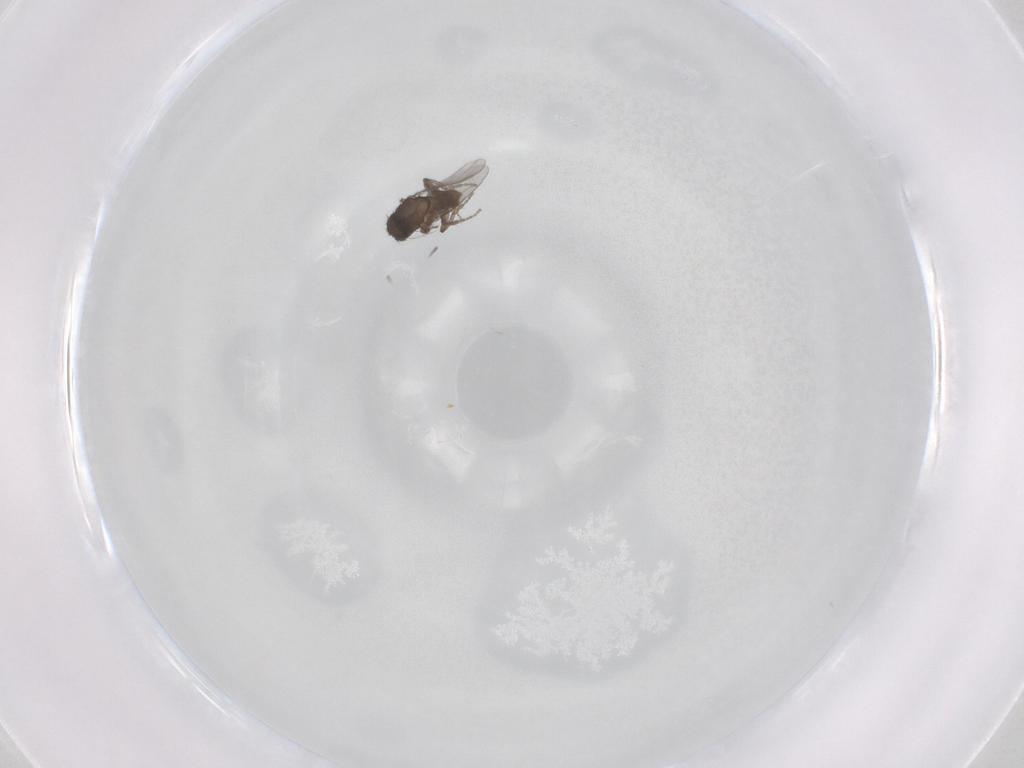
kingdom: Animalia
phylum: Arthropoda
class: Insecta
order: Diptera
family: Sphaeroceridae
